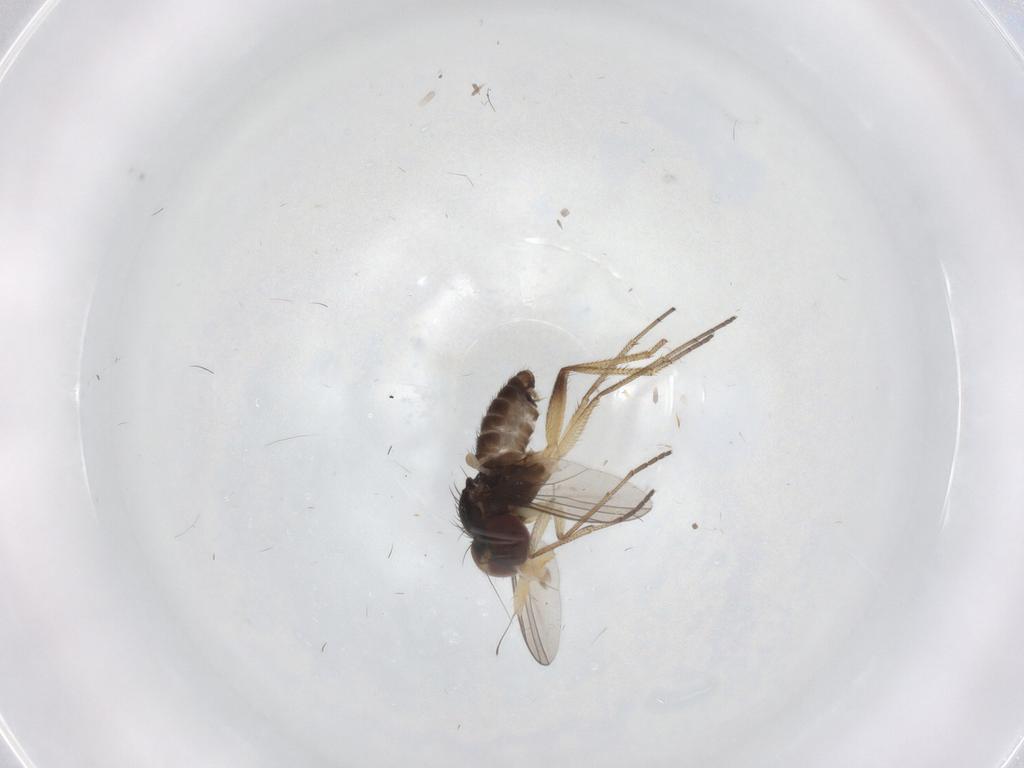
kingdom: Animalia
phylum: Arthropoda
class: Insecta
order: Diptera
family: Dolichopodidae
